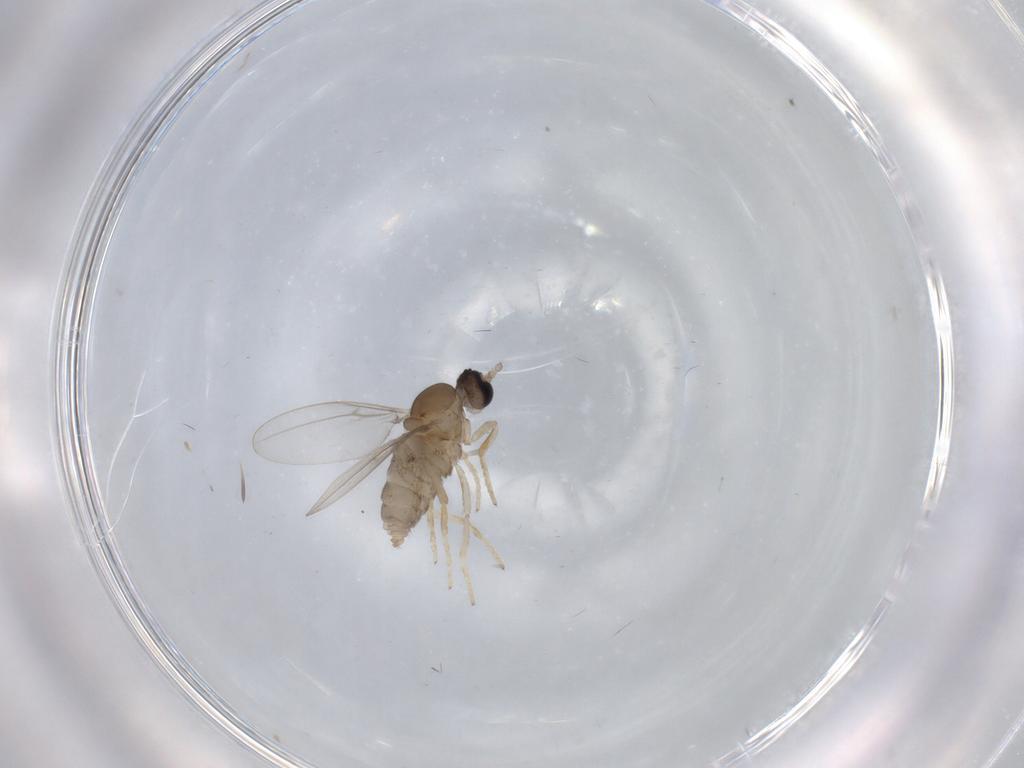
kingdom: Animalia
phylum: Arthropoda
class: Insecta
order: Diptera
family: Cecidomyiidae
